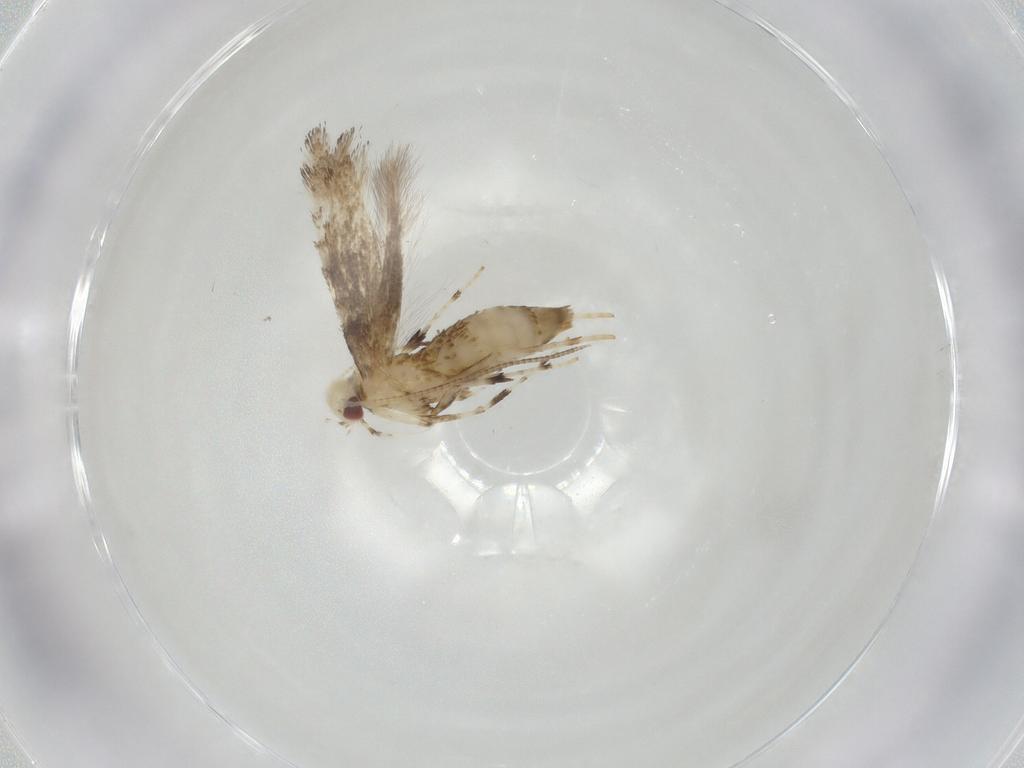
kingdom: Animalia
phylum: Arthropoda
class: Insecta
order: Lepidoptera
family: Gracillariidae
